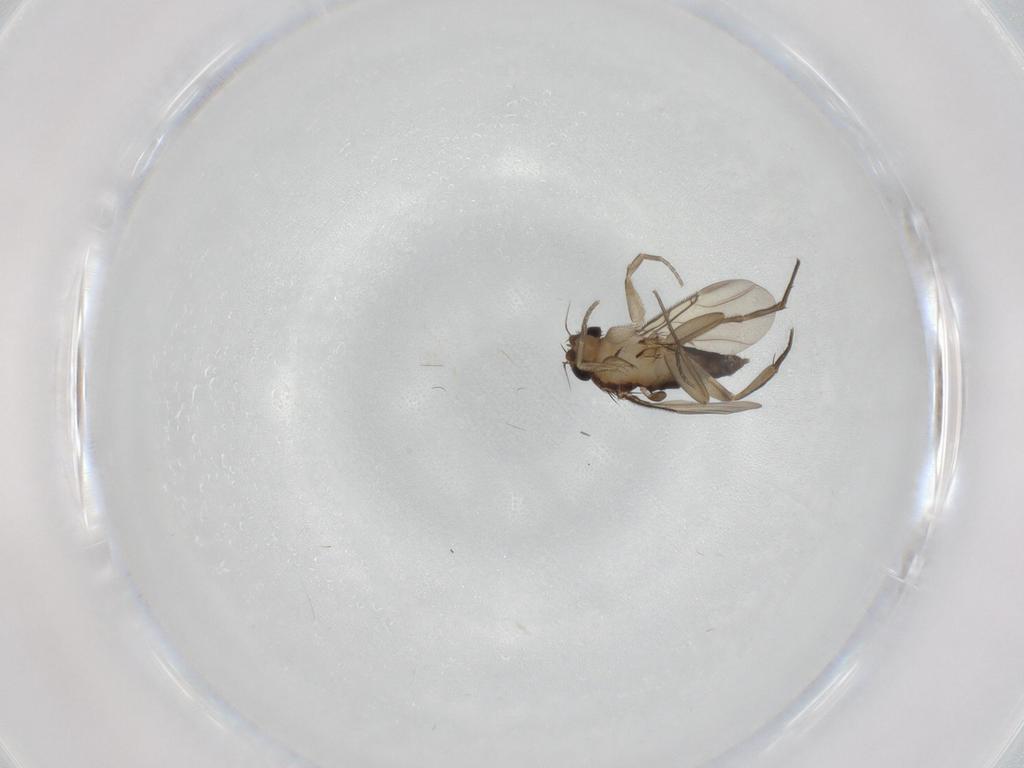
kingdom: Animalia
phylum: Arthropoda
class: Insecta
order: Diptera
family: Phoridae
